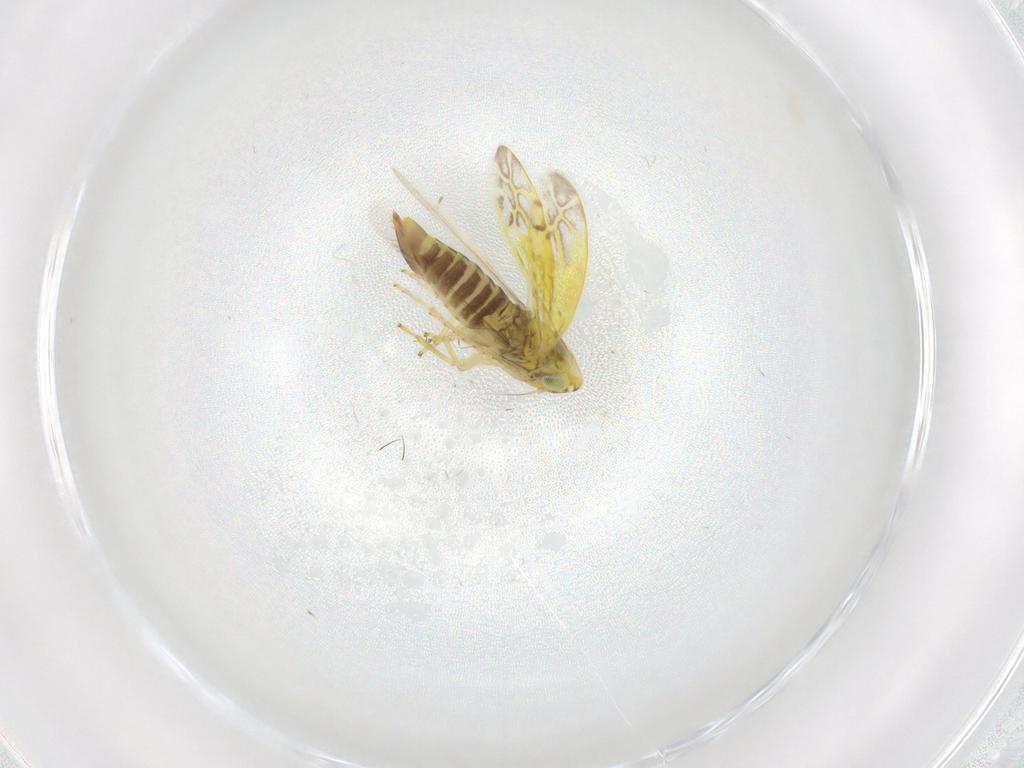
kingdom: Animalia
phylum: Arthropoda
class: Insecta
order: Hemiptera
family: Cicadellidae
